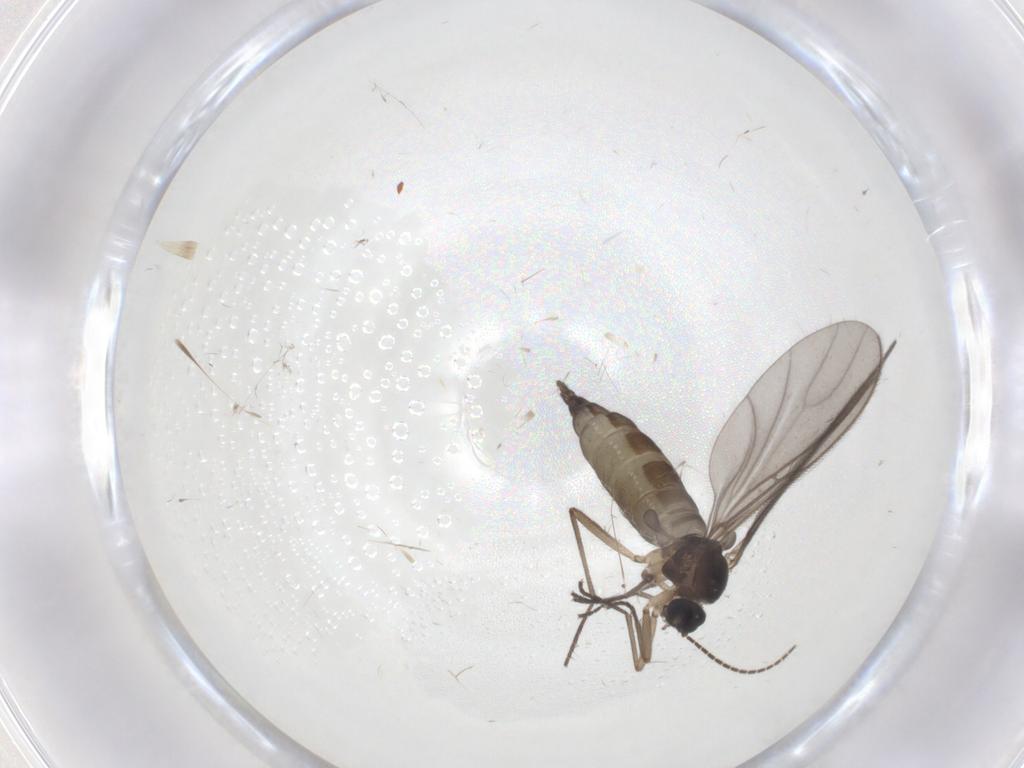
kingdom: Animalia
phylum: Arthropoda
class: Insecta
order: Diptera
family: Sciaridae
